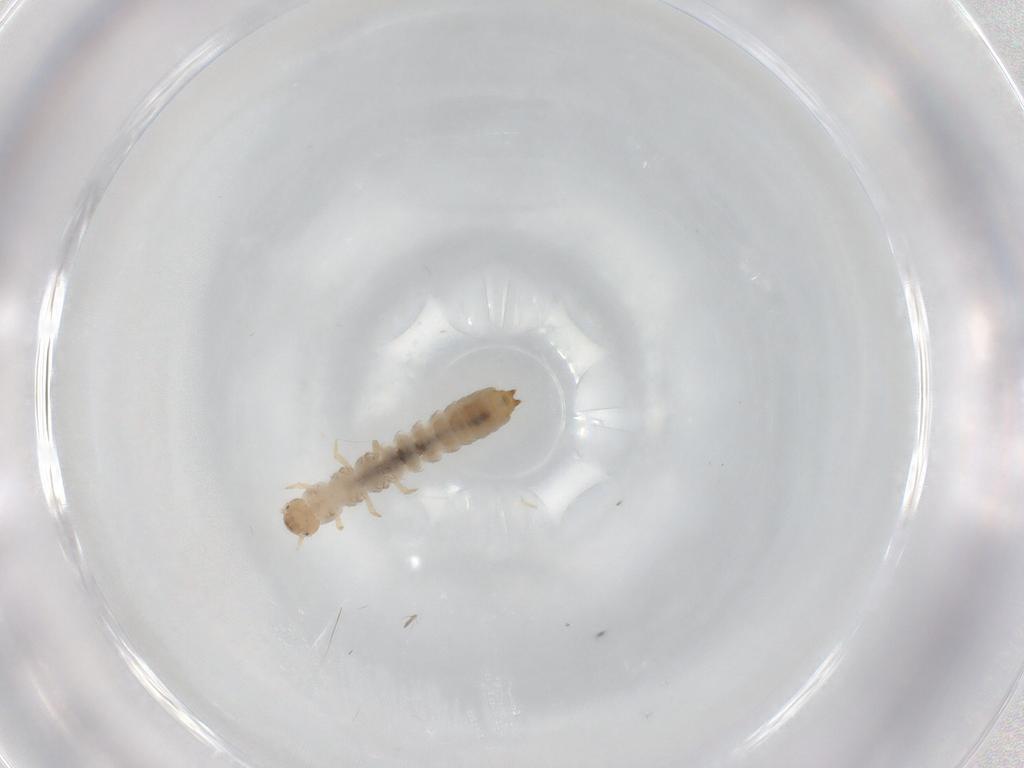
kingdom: Animalia
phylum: Arthropoda
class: Insecta
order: Coleoptera
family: Mycetophagidae
